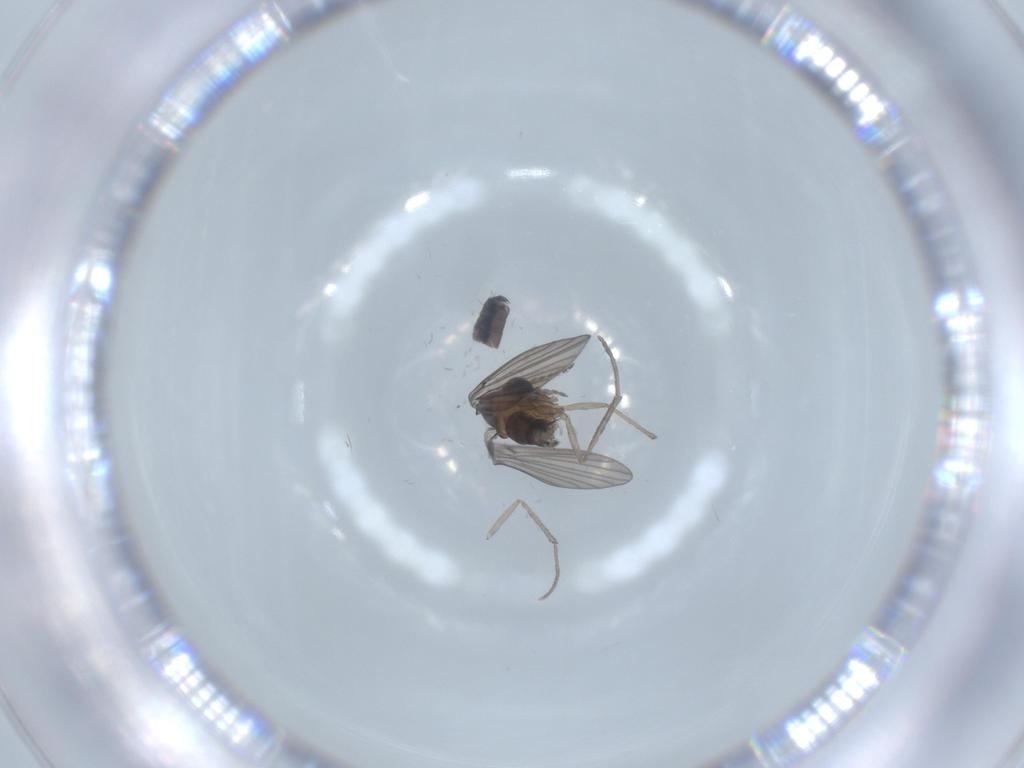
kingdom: Animalia
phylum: Arthropoda
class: Insecta
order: Diptera
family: Psychodidae
